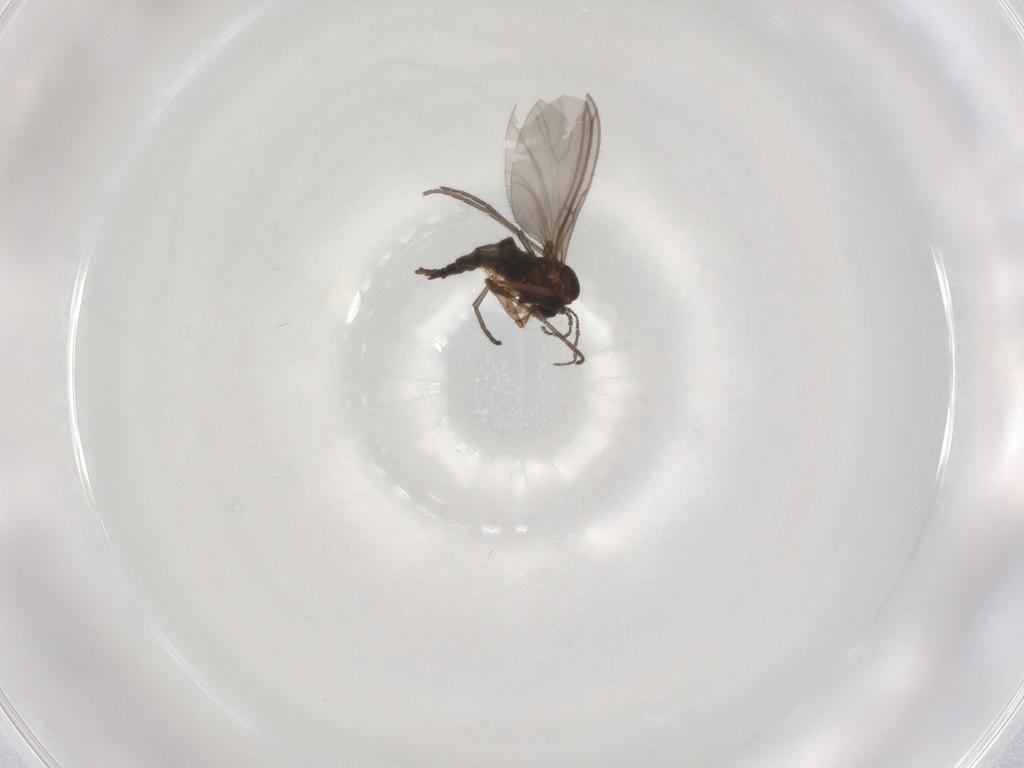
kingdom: Animalia
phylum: Arthropoda
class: Insecta
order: Diptera
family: Sciaridae
